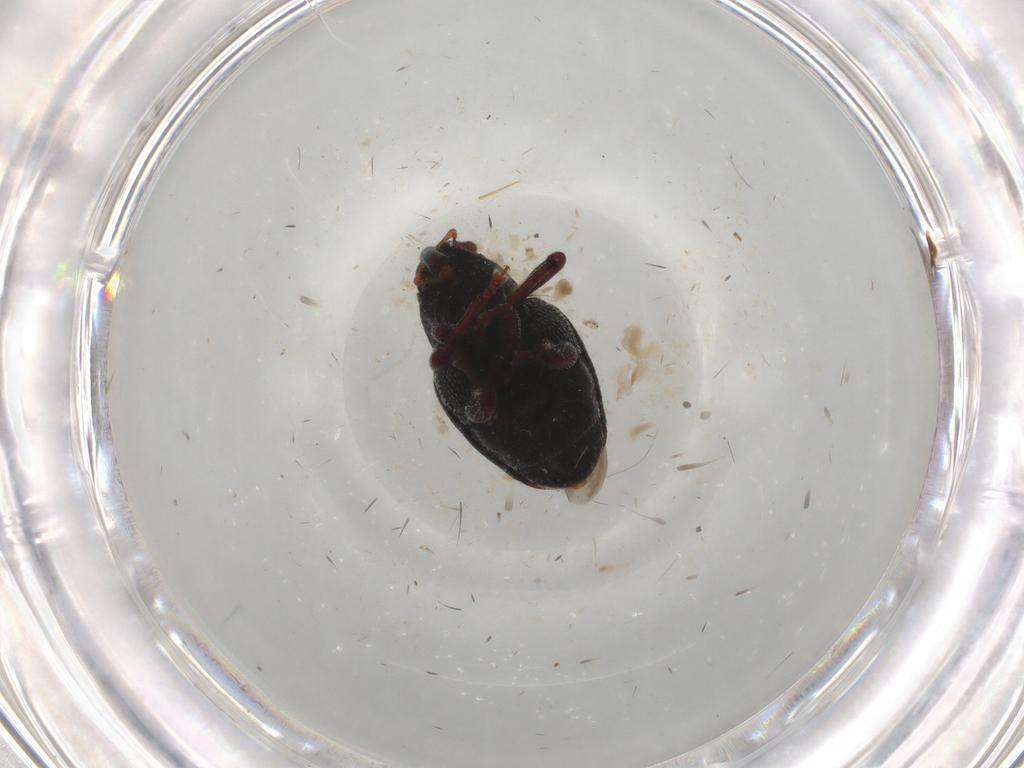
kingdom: Animalia
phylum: Arthropoda
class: Insecta
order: Coleoptera
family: Curculionidae
